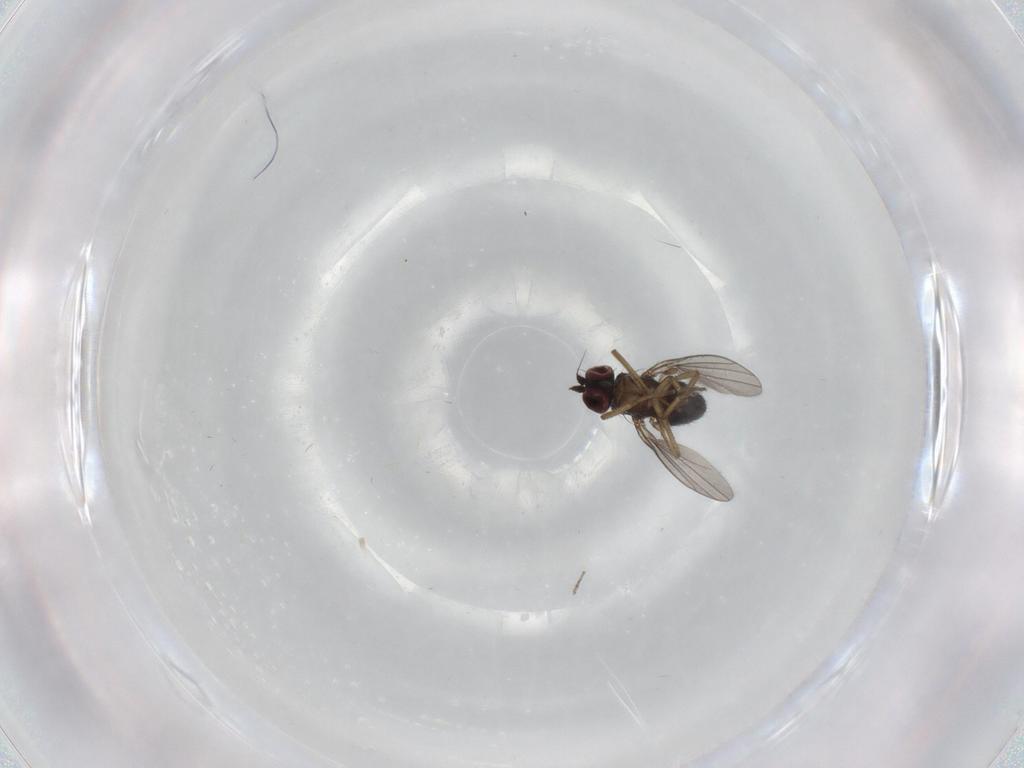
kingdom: Animalia
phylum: Arthropoda
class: Insecta
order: Diptera
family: Dolichopodidae
